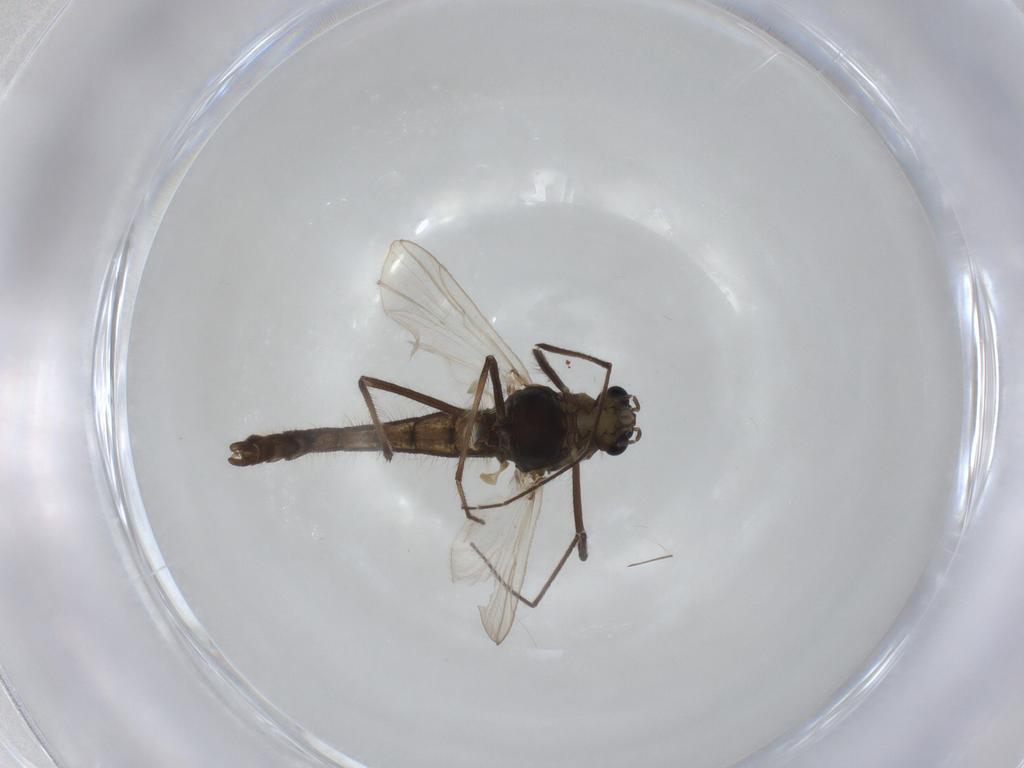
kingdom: Animalia
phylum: Arthropoda
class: Insecta
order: Diptera
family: Chironomidae
